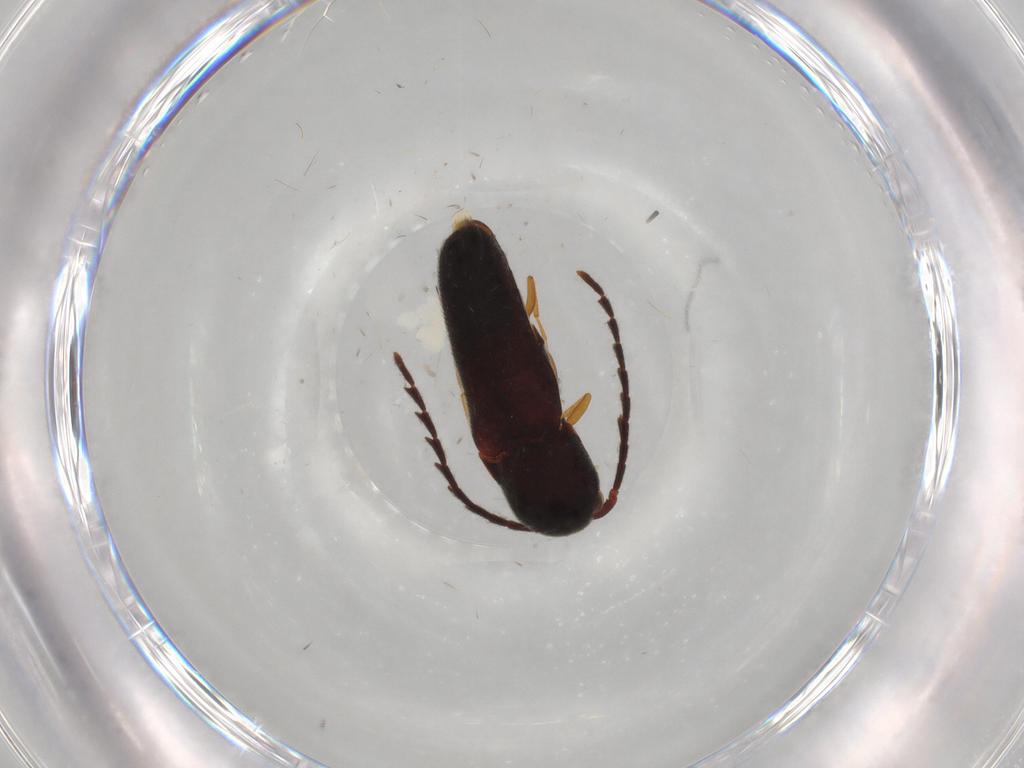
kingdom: Animalia
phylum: Arthropoda
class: Insecta
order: Coleoptera
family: Eucnemidae
